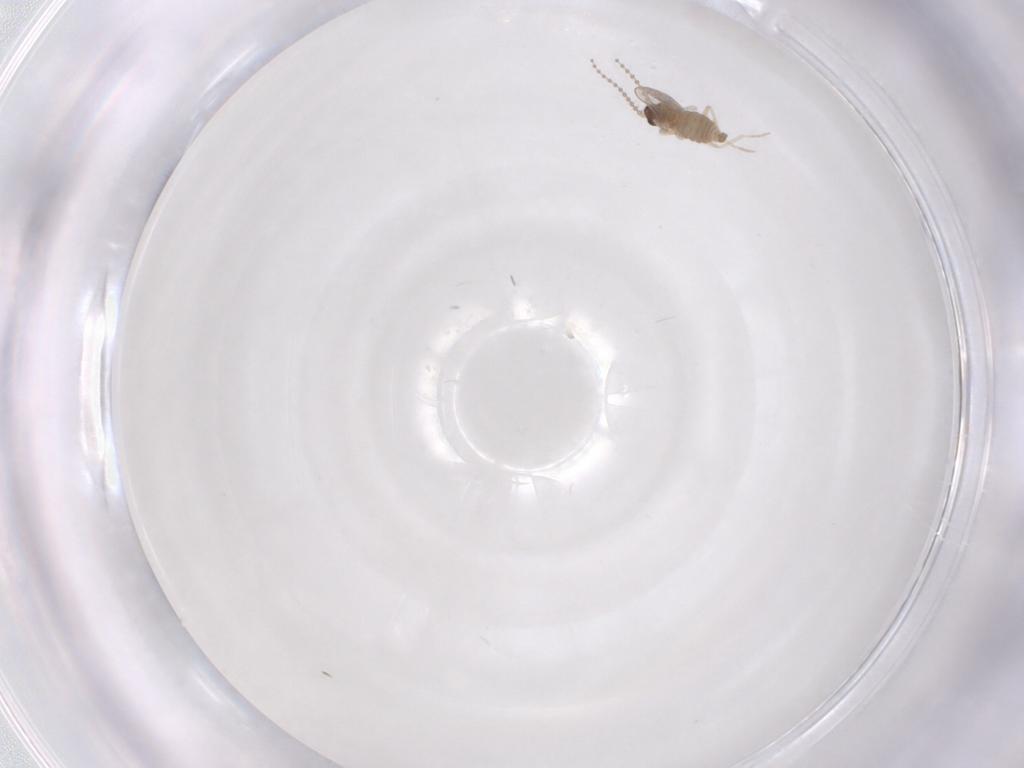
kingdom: Animalia
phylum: Arthropoda
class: Insecta
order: Diptera
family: Cecidomyiidae
